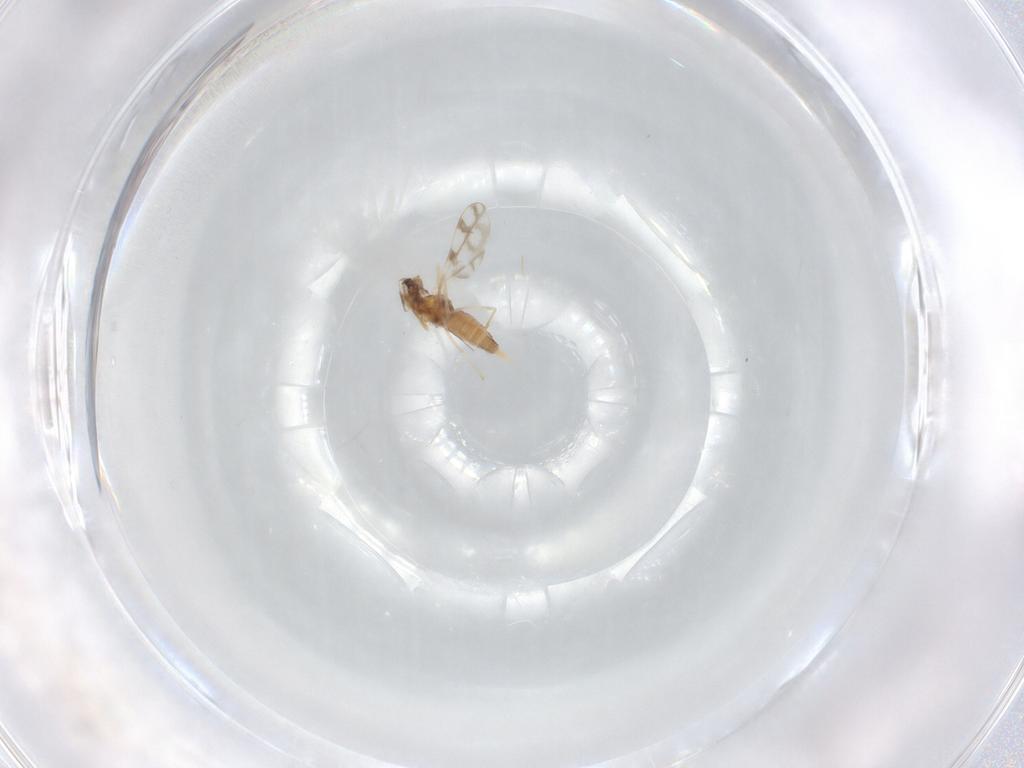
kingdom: Animalia
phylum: Arthropoda
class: Insecta
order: Diptera
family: Cecidomyiidae
